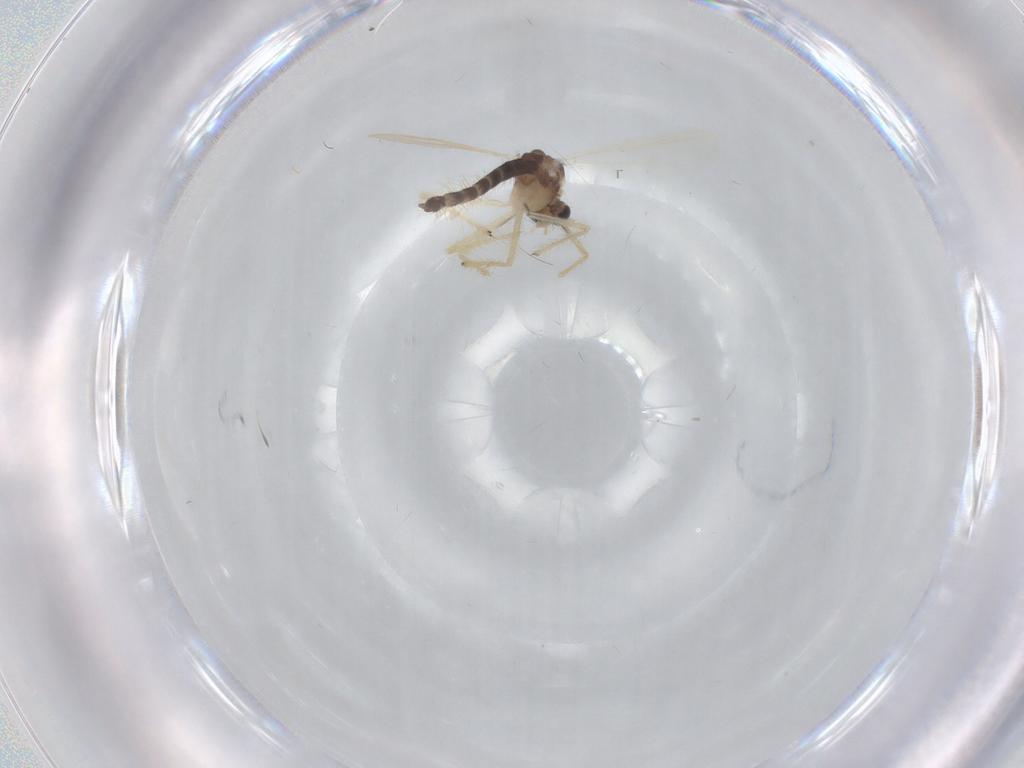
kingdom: Animalia
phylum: Arthropoda
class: Insecta
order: Diptera
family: Chironomidae
